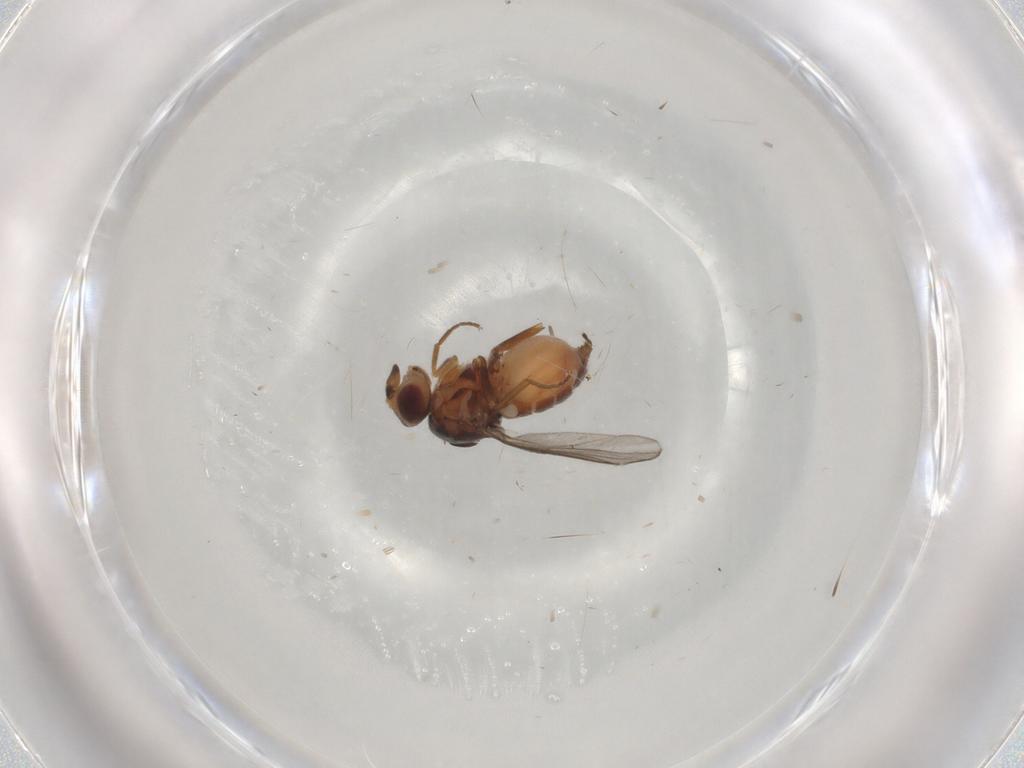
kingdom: Animalia
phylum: Arthropoda
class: Insecta
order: Diptera
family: Chloropidae
